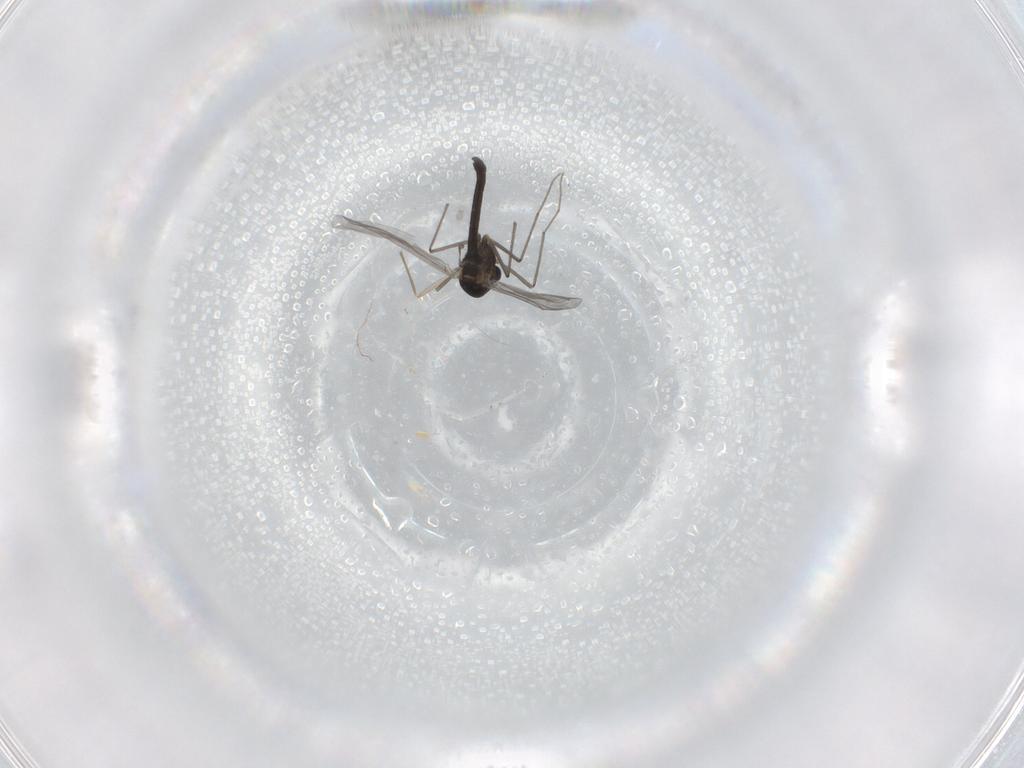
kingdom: Animalia
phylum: Arthropoda
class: Insecta
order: Diptera
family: Chironomidae
